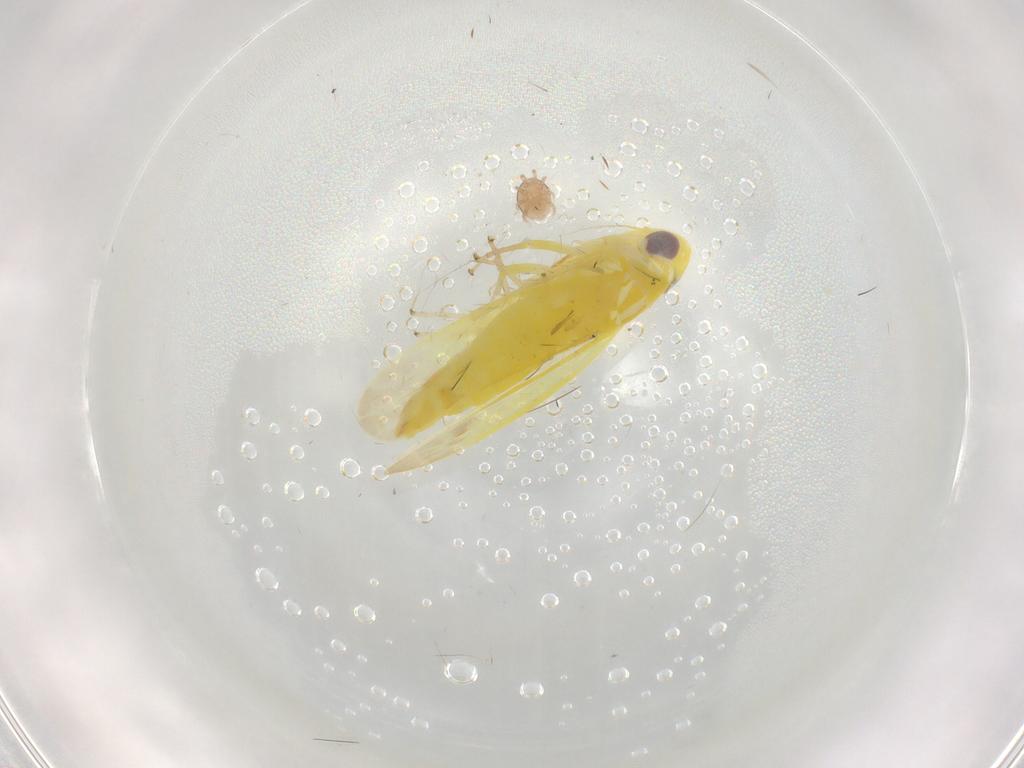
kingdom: Animalia
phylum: Arthropoda
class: Insecta
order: Hemiptera
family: Cicadellidae
